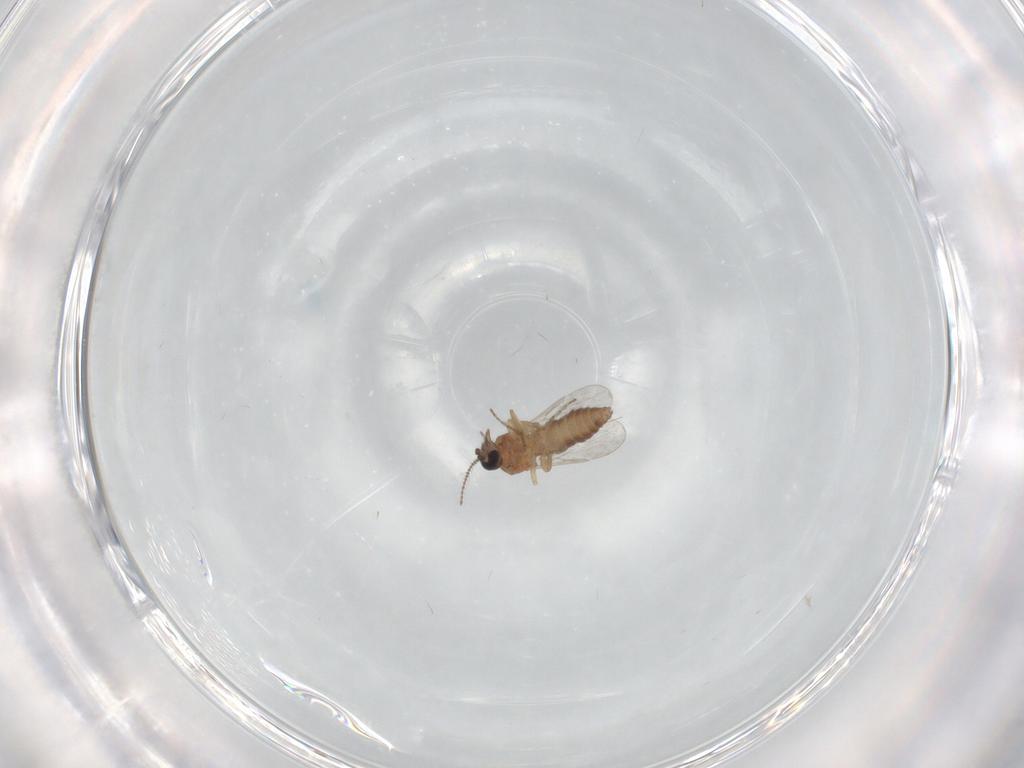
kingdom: Animalia
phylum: Arthropoda
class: Insecta
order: Diptera
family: Ceratopogonidae
